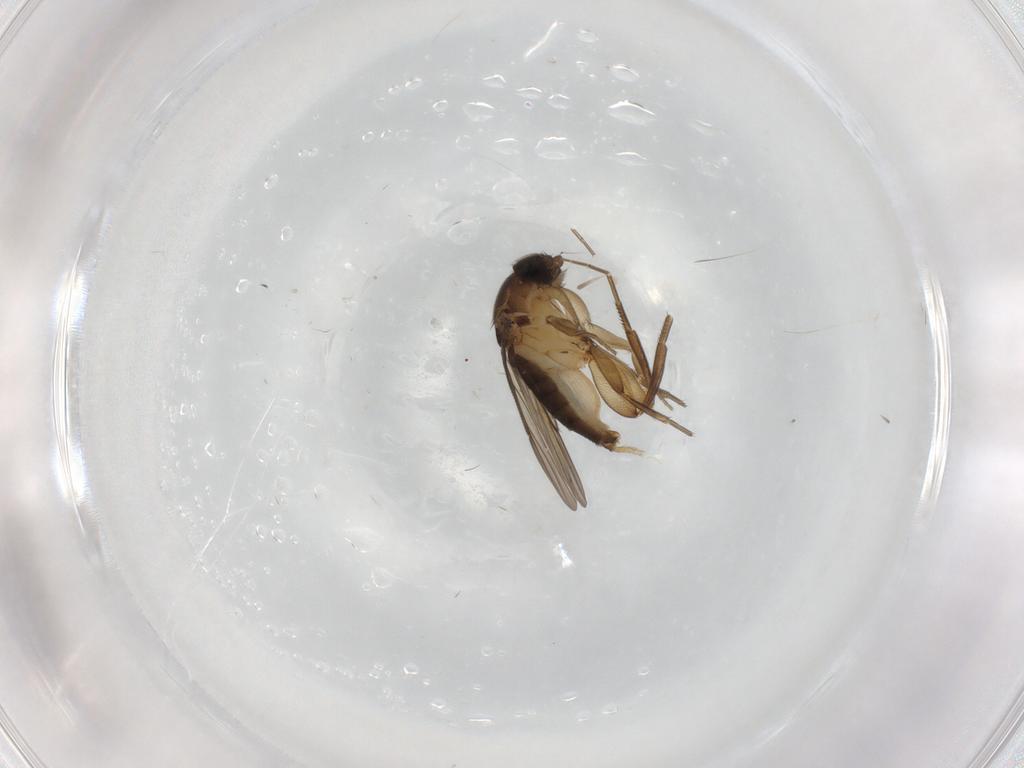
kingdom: Animalia
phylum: Arthropoda
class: Insecta
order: Diptera
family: Phoridae
